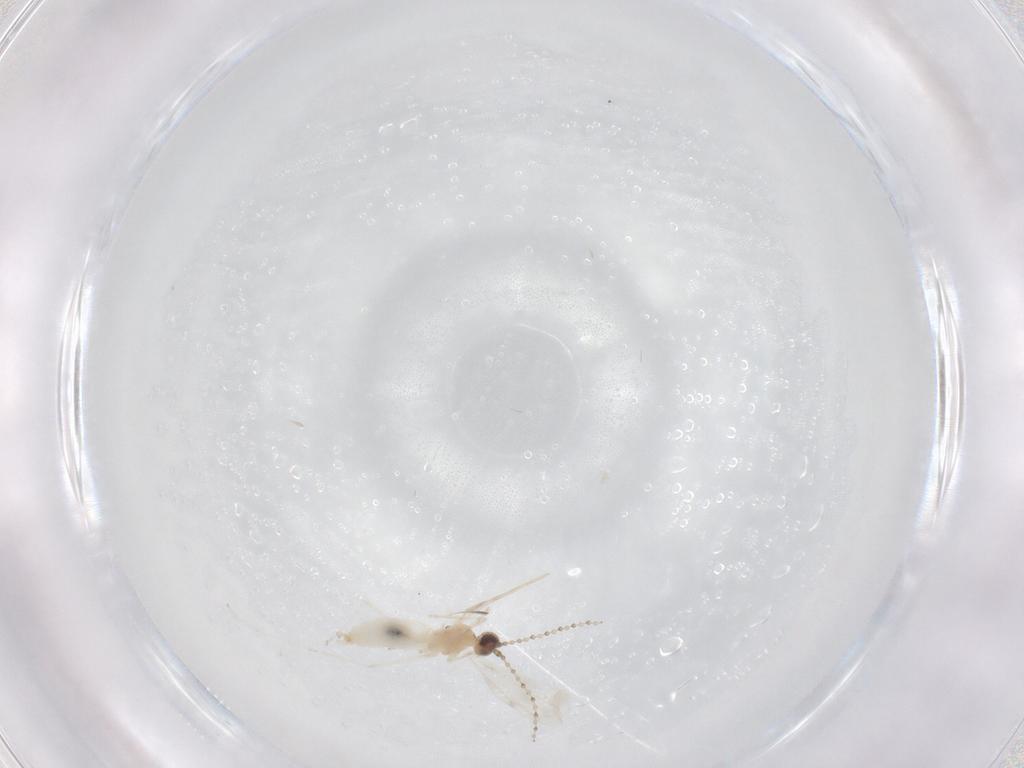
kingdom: Animalia
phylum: Arthropoda
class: Insecta
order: Diptera
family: Cecidomyiidae
